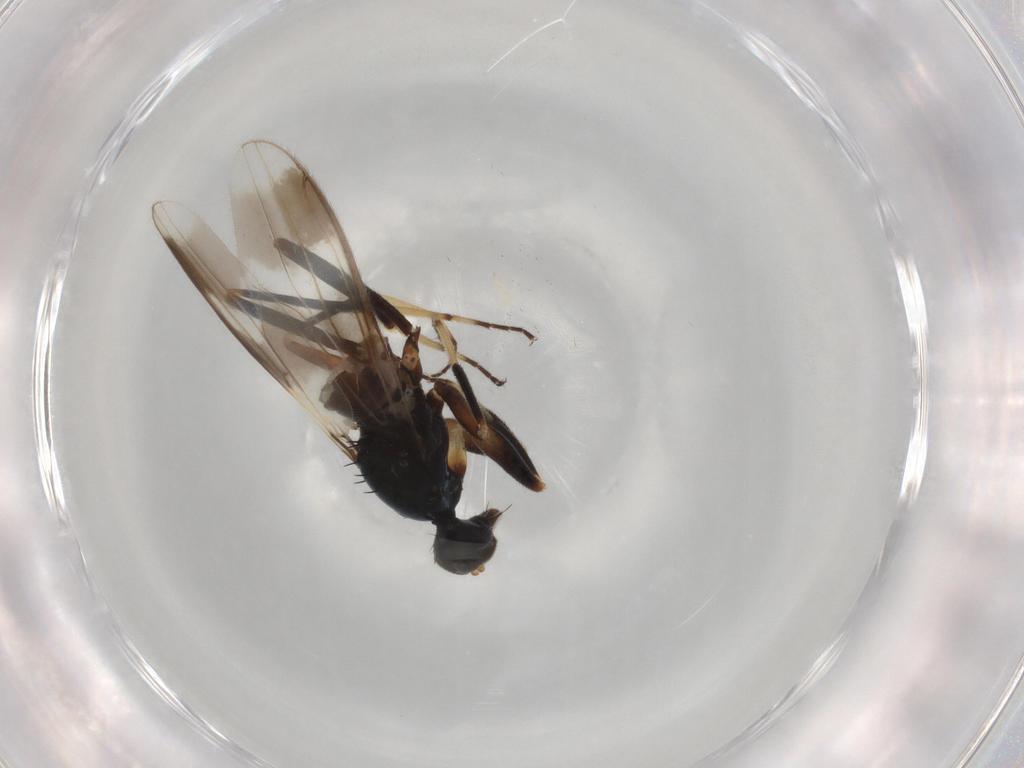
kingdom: Animalia
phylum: Arthropoda
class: Insecta
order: Diptera
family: Hybotidae
